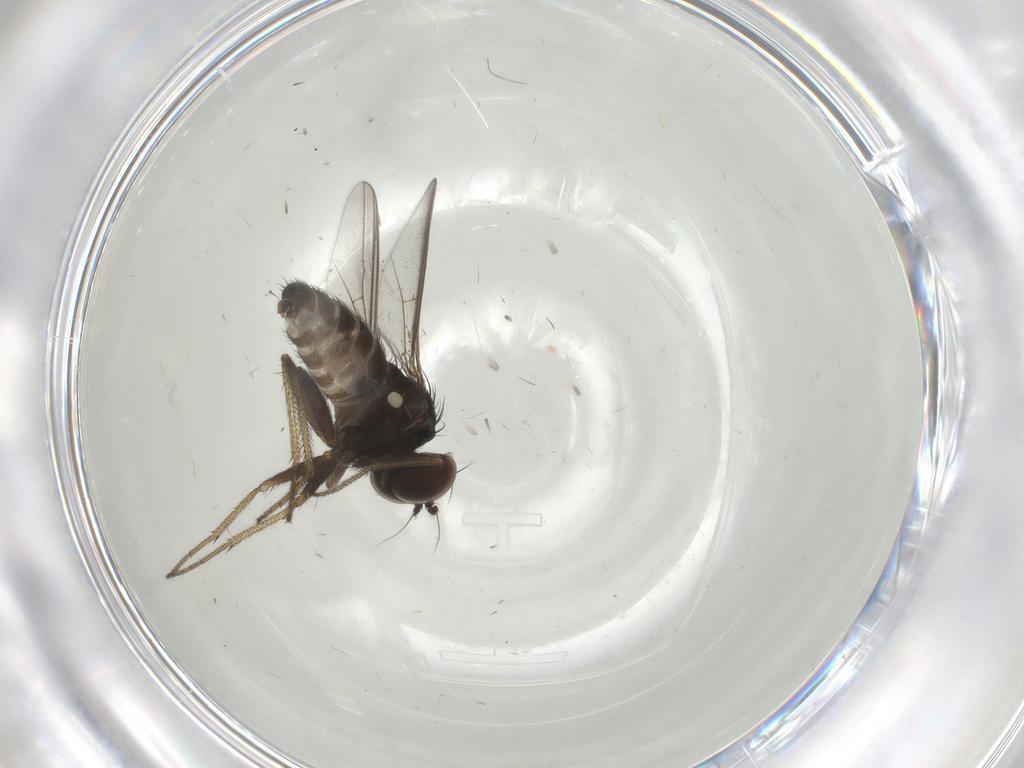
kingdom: Animalia
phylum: Arthropoda
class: Insecta
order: Diptera
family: Dolichopodidae
